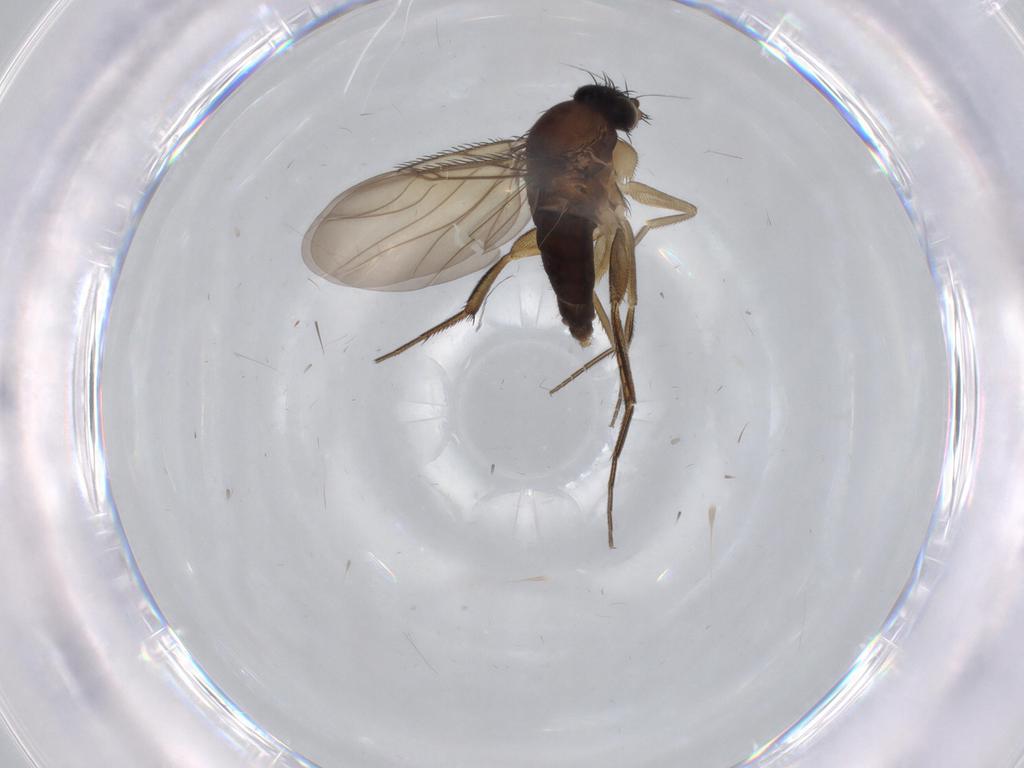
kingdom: Animalia
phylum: Arthropoda
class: Insecta
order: Diptera
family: Phoridae
